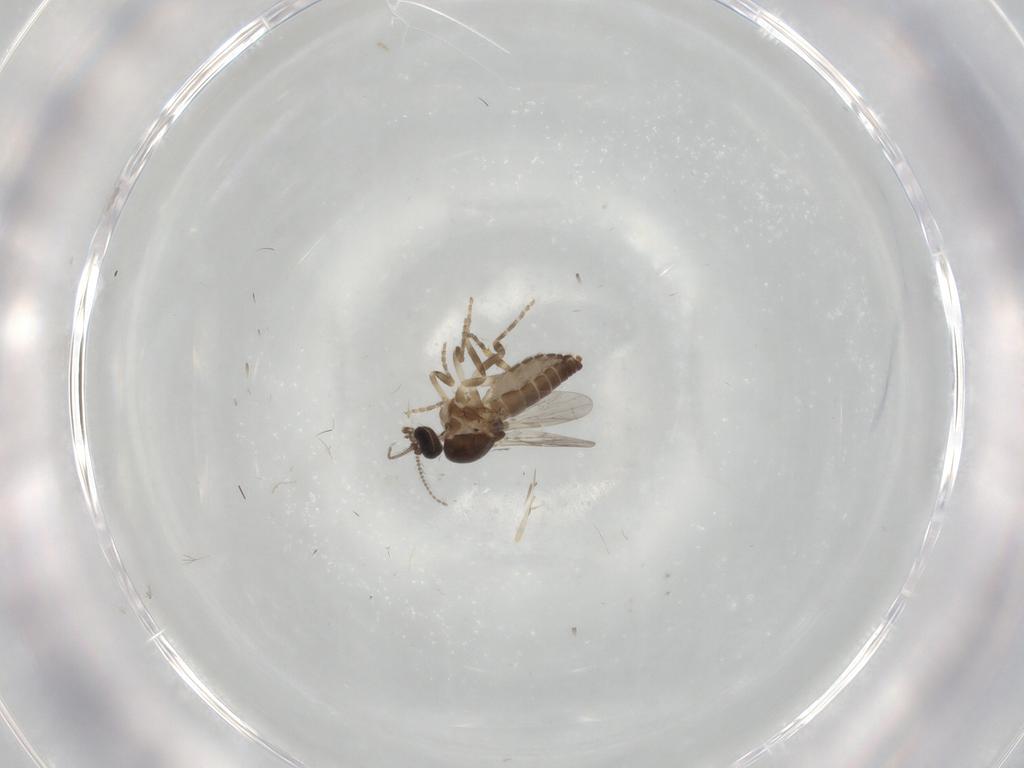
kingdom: Animalia
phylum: Arthropoda
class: Insecta
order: Diptera
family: Ceratopogonidae
